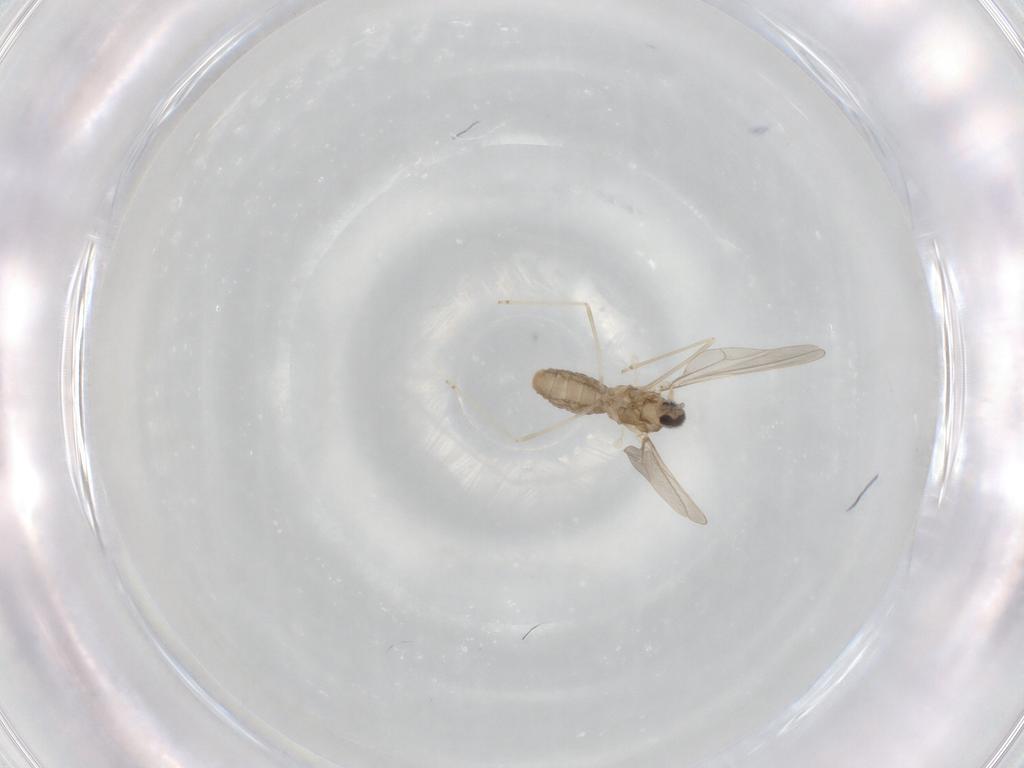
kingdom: Animalia
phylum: Arthropoda
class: Insecta
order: Diptera
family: Cecidomyiidae
